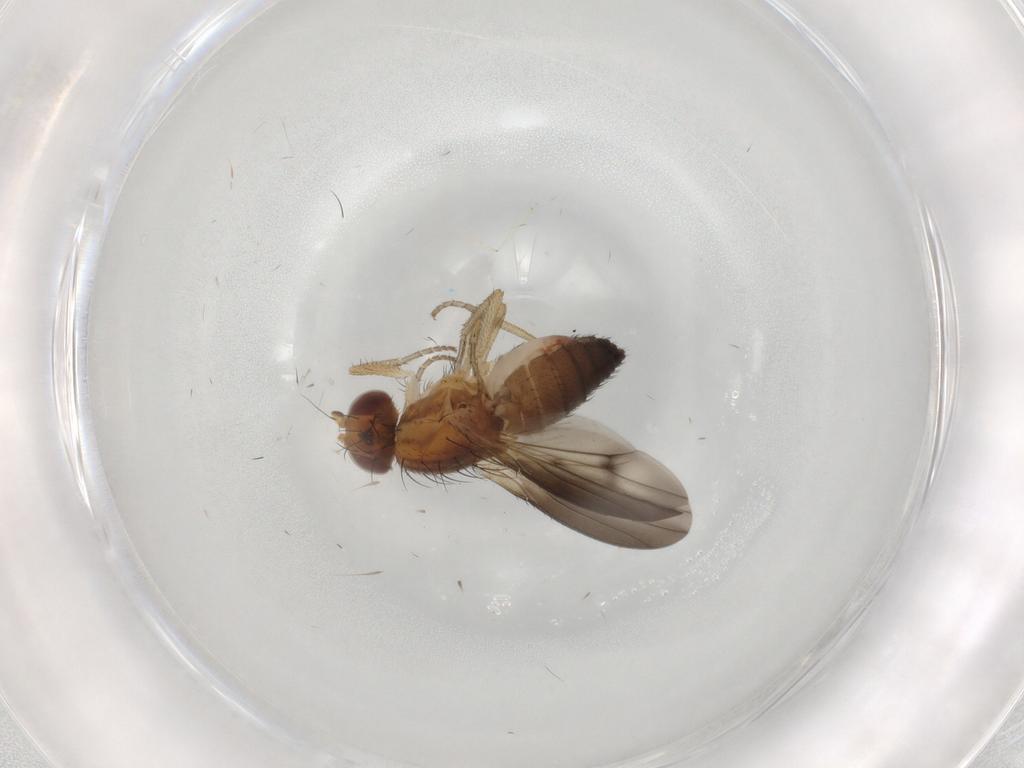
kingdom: Animalia
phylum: Arthropoda
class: Insecta
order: Diptera
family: Heleomyzidae
